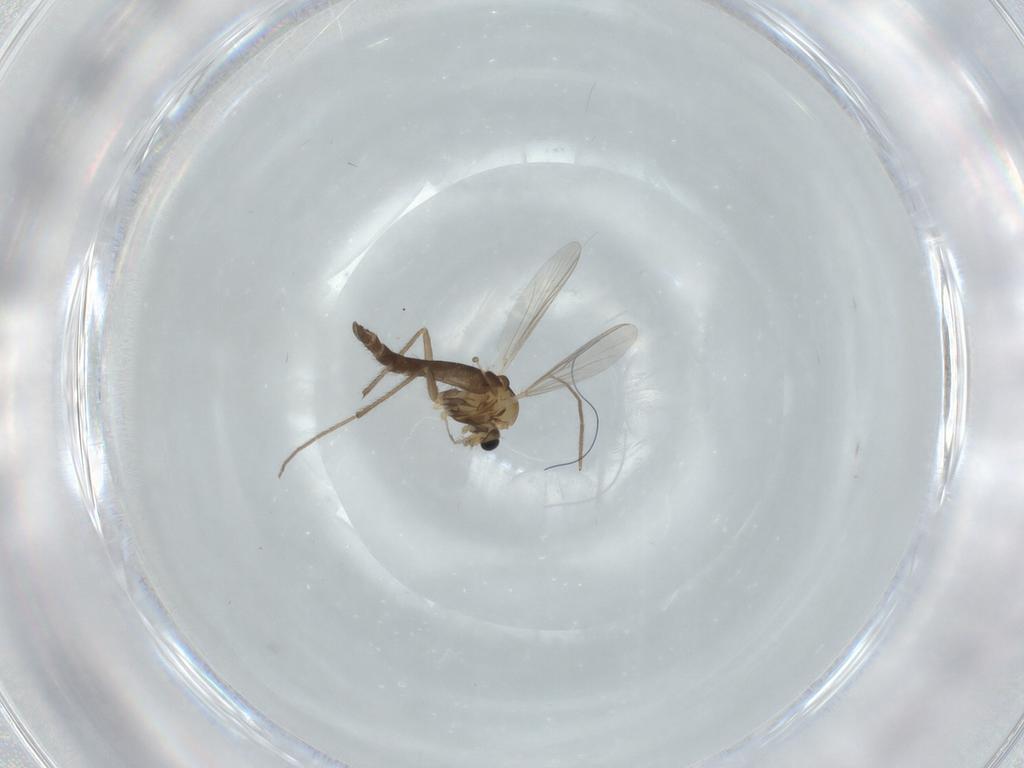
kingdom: Animalia
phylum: Arthropoda
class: Insecta
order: Diptera
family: Chironomidae
